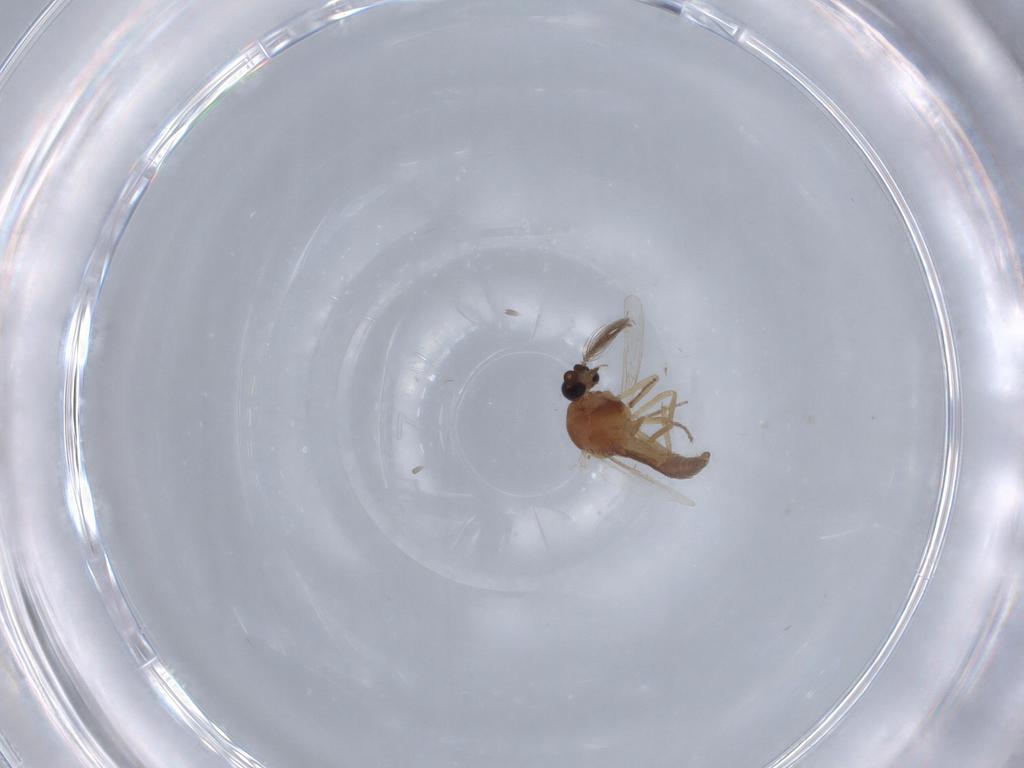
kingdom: Animalia
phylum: Arthropoda
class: Insecta
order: Diptera
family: Ceratopogonidae
